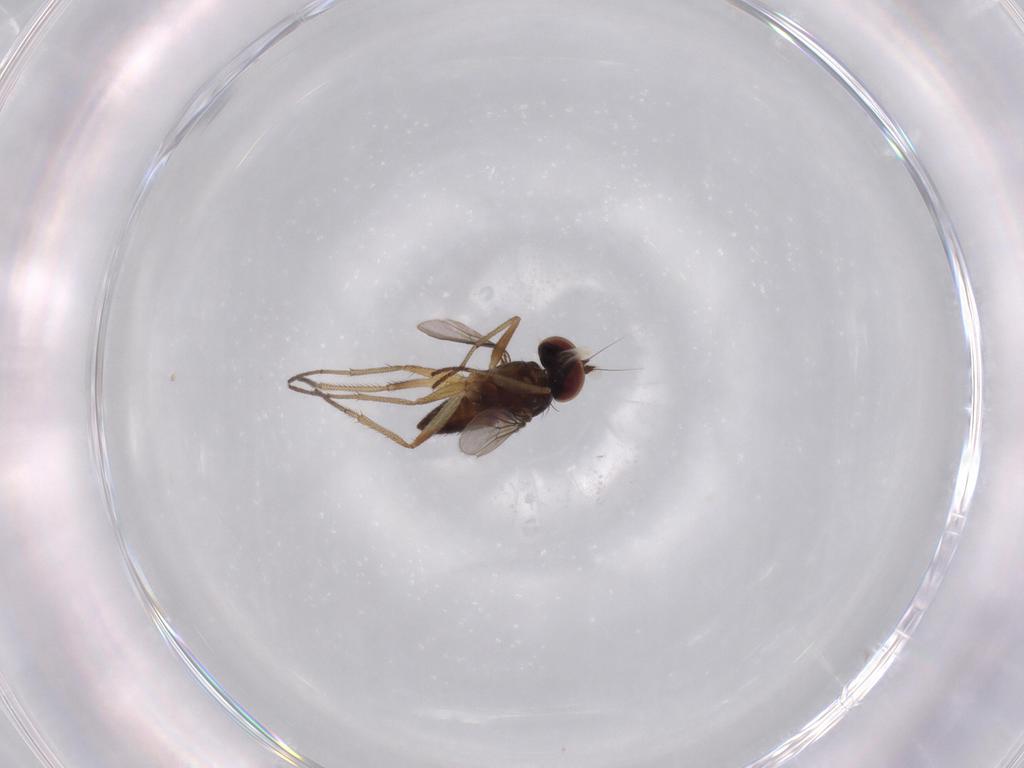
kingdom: Animalia
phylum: Arthropoda
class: Insecta
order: Diptera
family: Dolichopodidae
